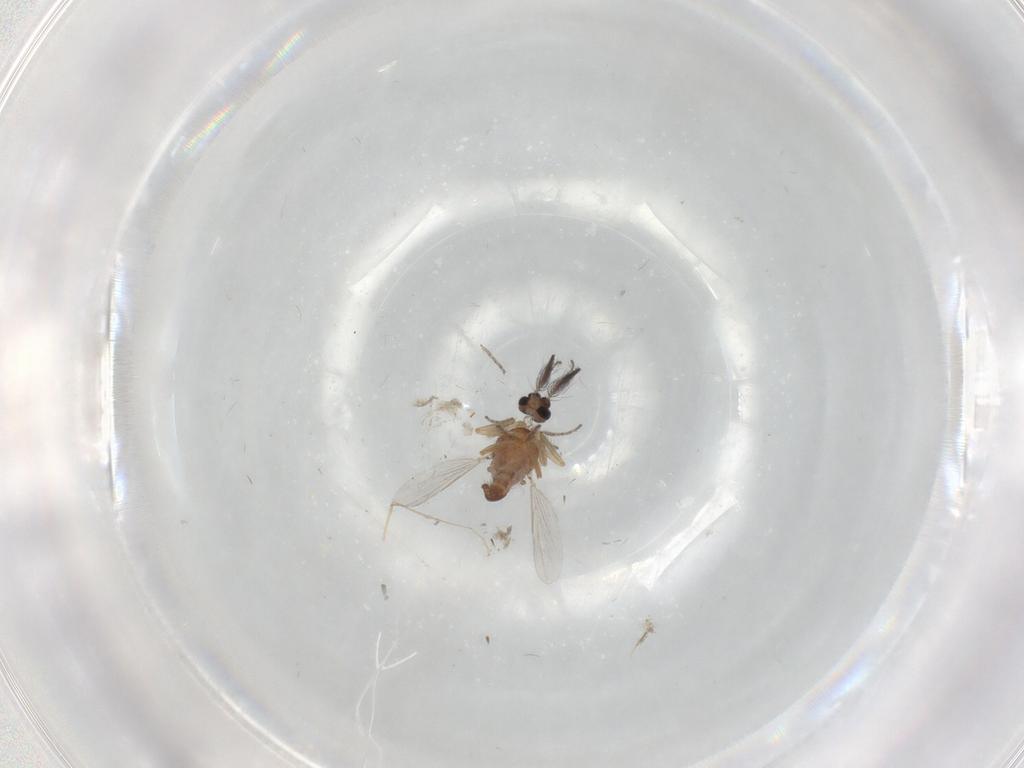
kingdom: Animalia
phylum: Arthropoda
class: Insecta
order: Diptera
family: Ceratopogonidae
